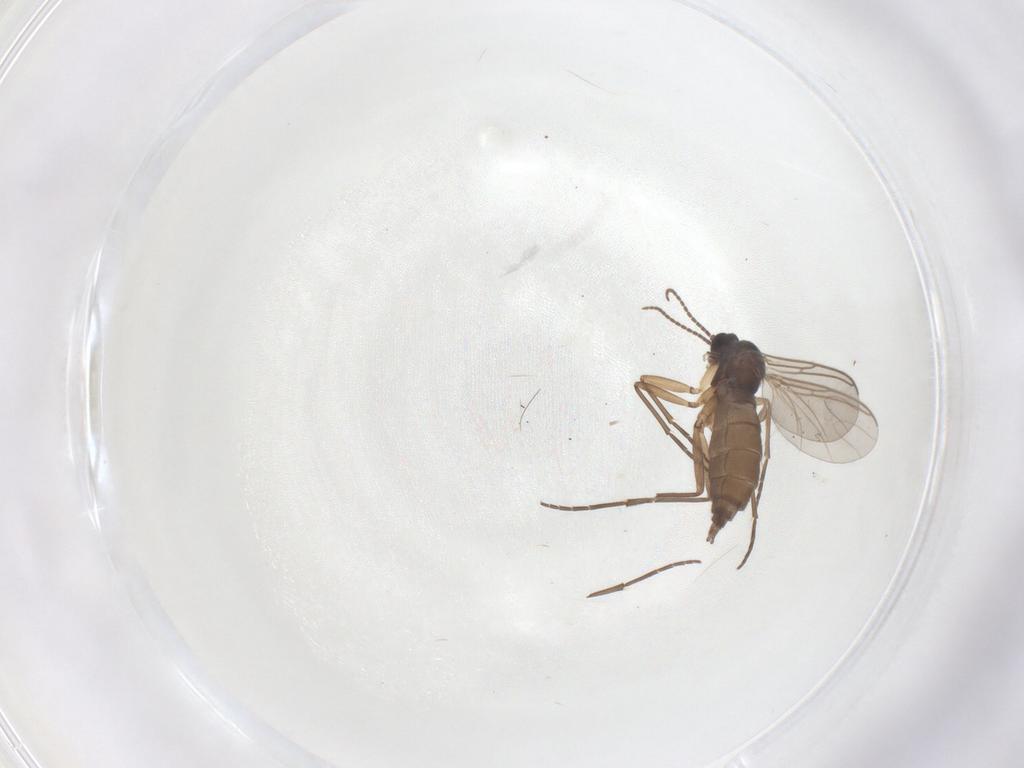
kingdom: Animalia
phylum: Arthropoda
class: Insecta
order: Diptera
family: Sciaridae
